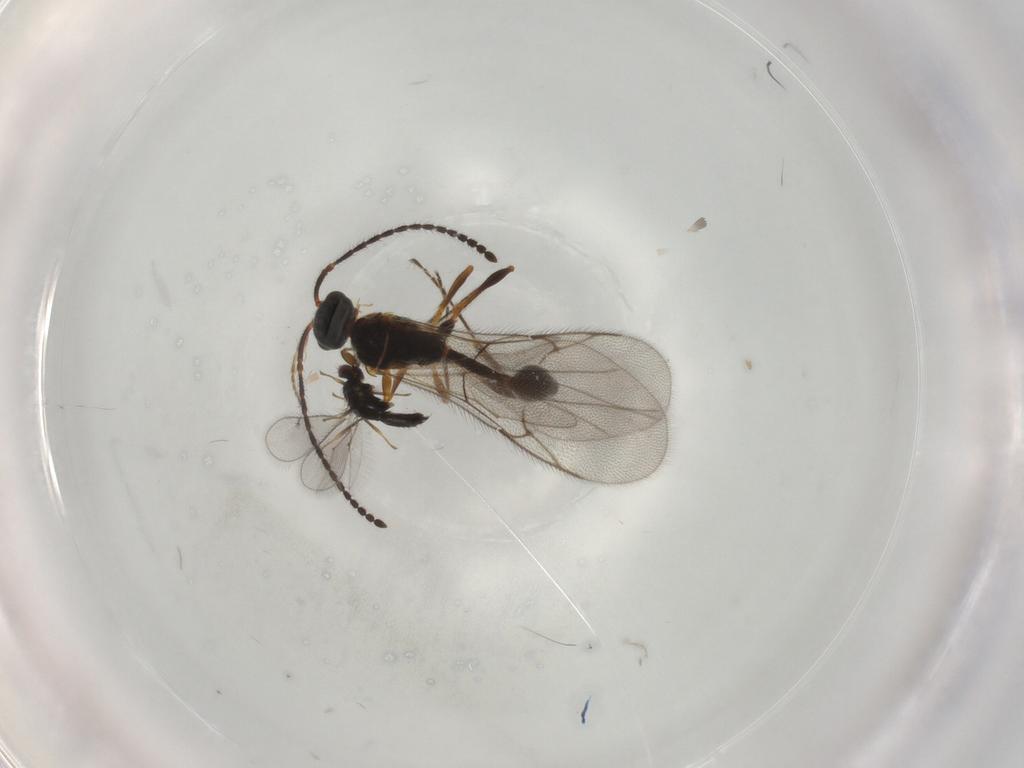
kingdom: Animalia
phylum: Arthropoda
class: Insecta
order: Hymenoptera
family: Diapriidae
